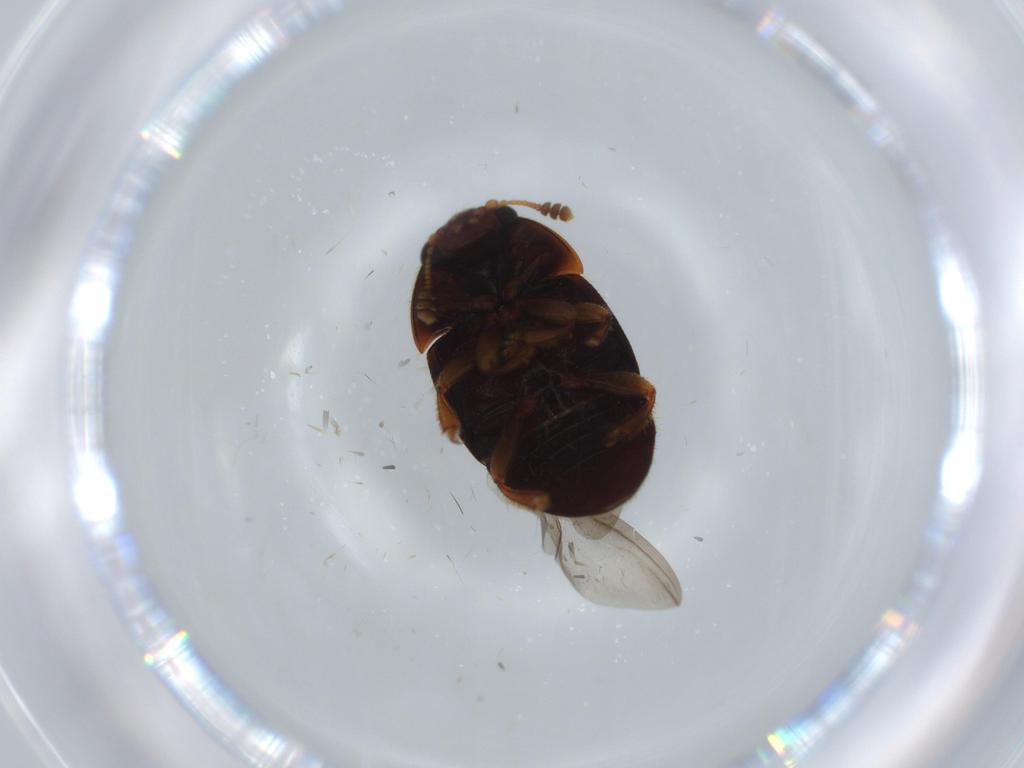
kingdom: Animalia
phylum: Arthropoda
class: Insecta
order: Coleoptera
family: Nitidulidae
